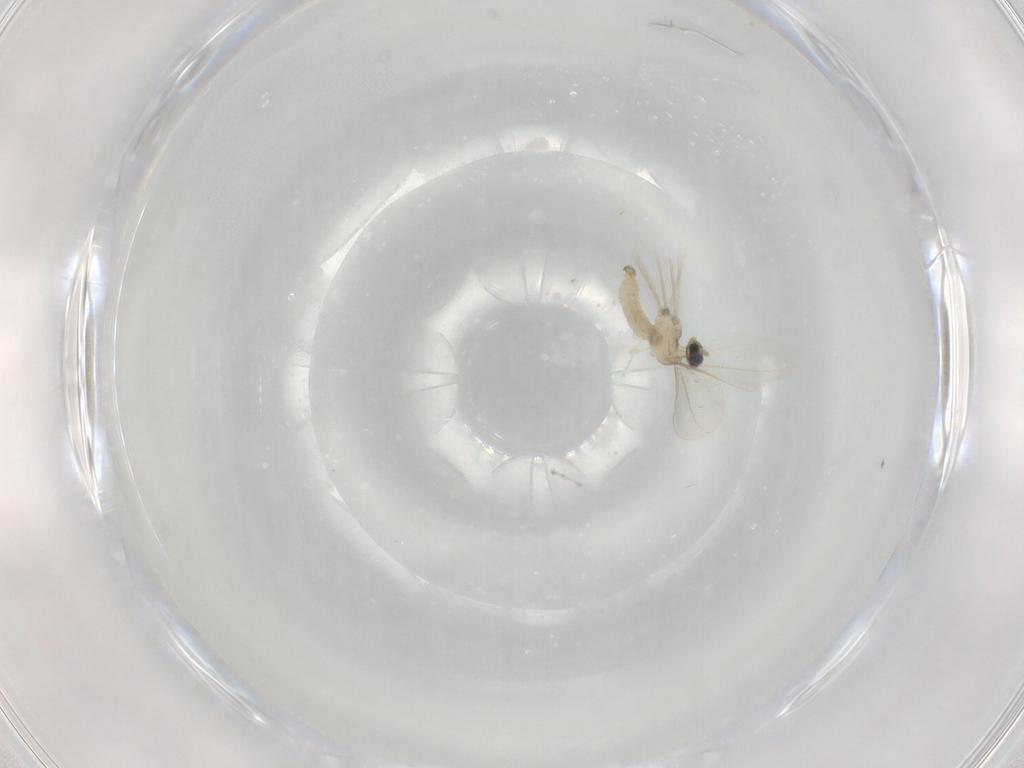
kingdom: Animalia
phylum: Arthropoda
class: Insecta
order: Diptera
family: Cecidomyiidae
